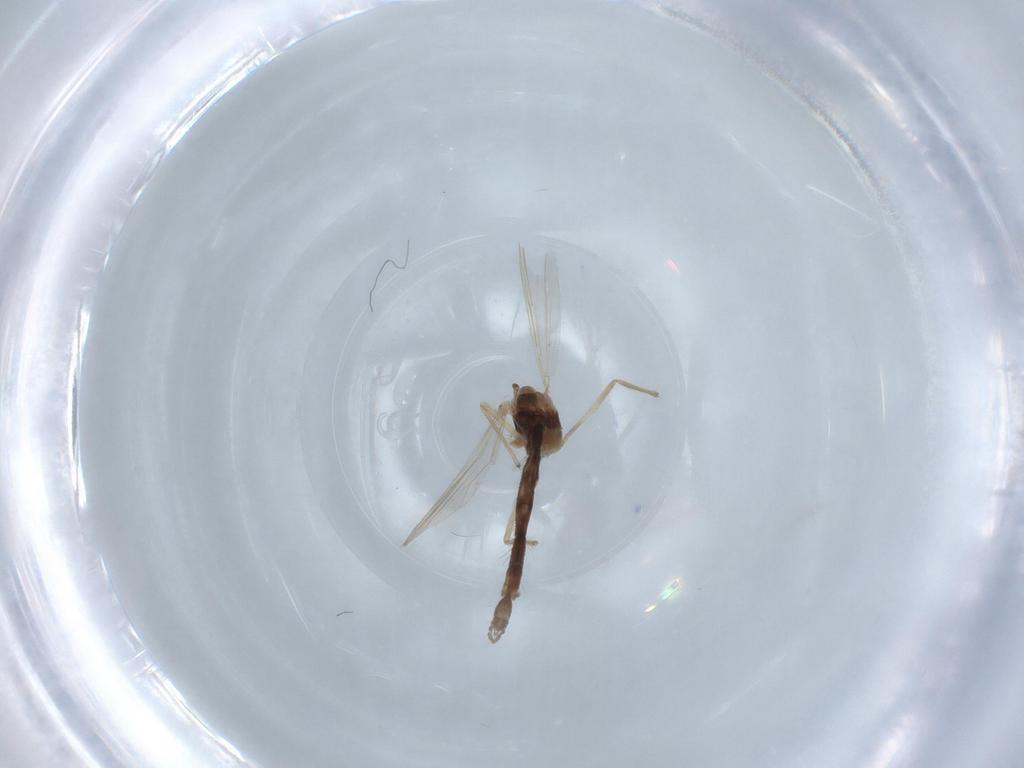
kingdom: Animalia
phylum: Arthropoda
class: Insecta
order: Diptera
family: Chironomidae
